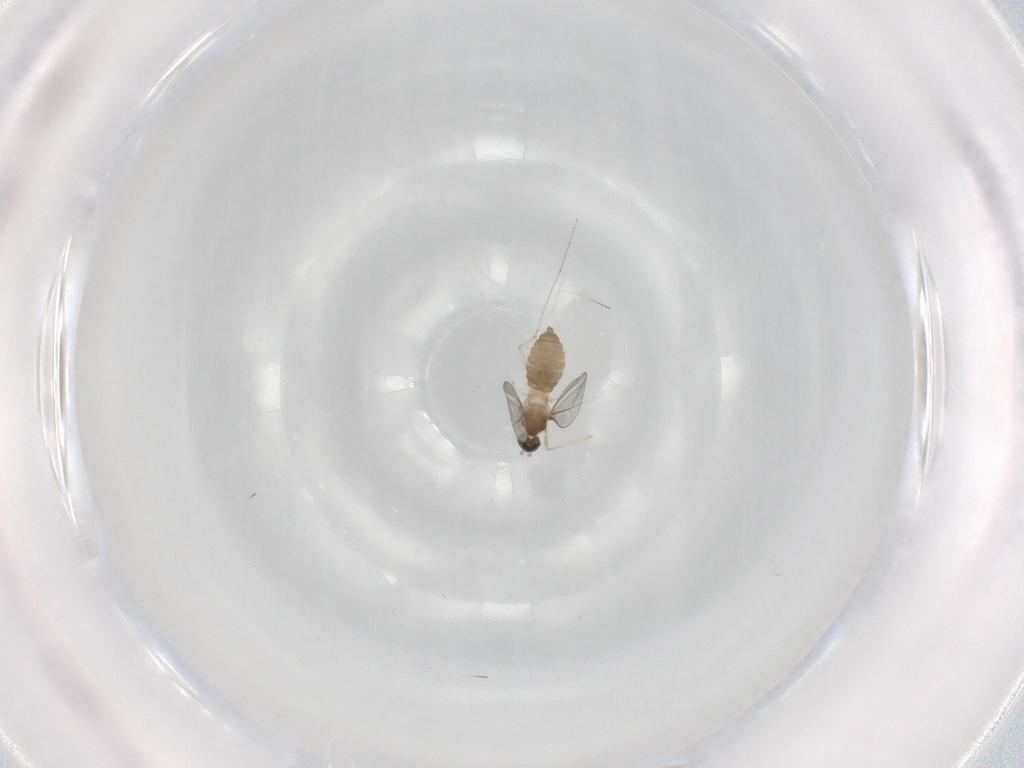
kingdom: Animalia
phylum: Arthropoda
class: Insecta
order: Diptera
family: Cecidomyiidae
